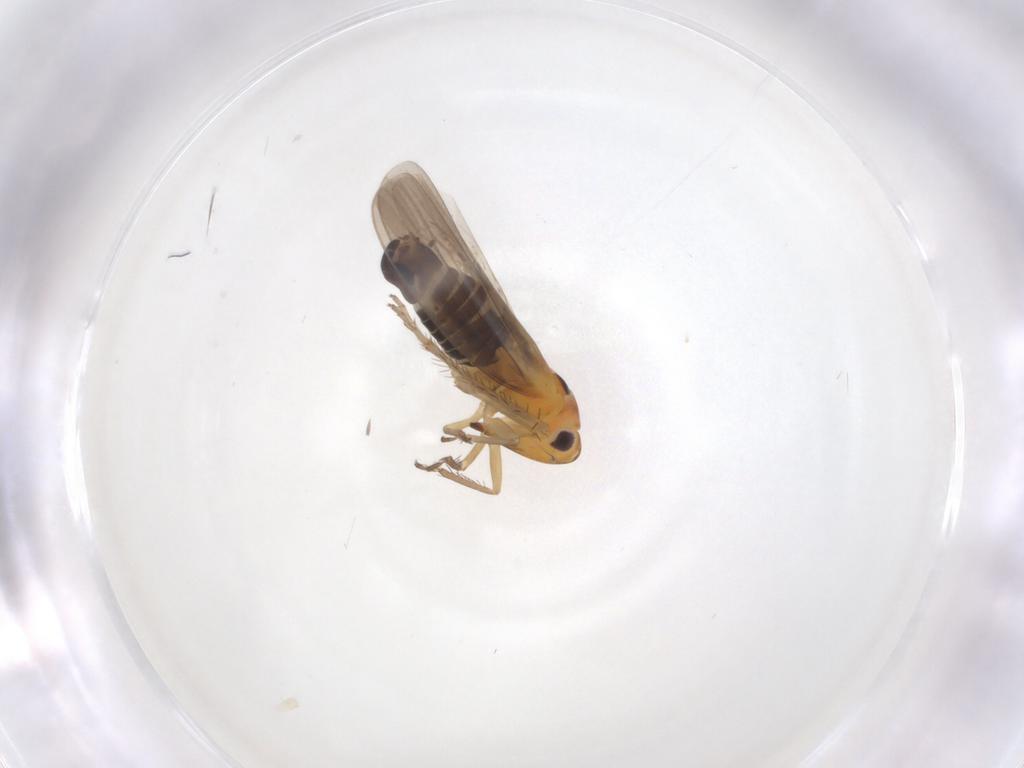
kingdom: Animalia
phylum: Arthropoda
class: Insecta
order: Hemiptera
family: Cicadellidae
